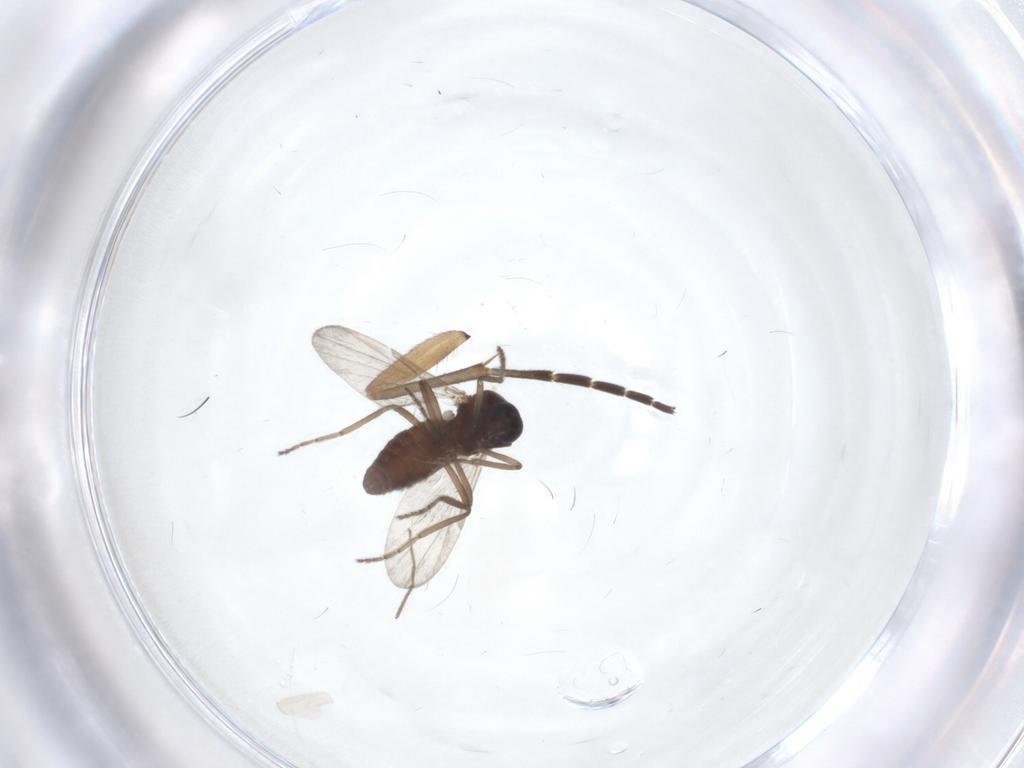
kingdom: Animalia
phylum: Arthropoda
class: Insecta
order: Diptera
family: Ceratopogonidae
